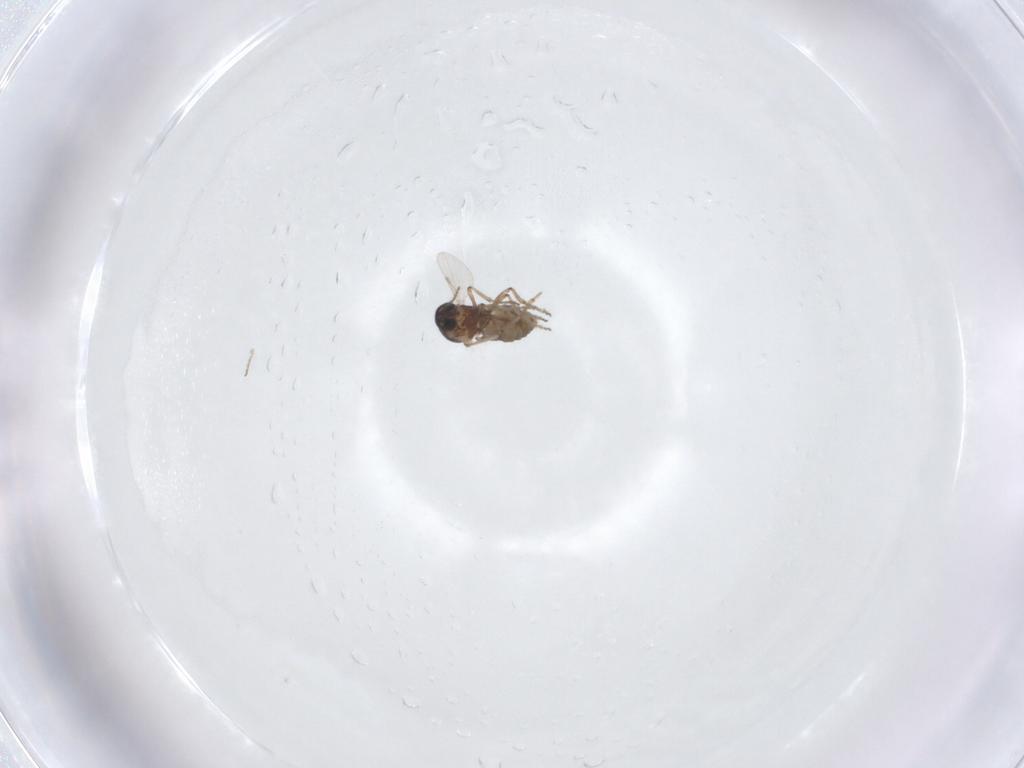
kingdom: Animalia
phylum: Arthropoda
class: Insecta
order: Diptera
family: Ceratopogonidae
